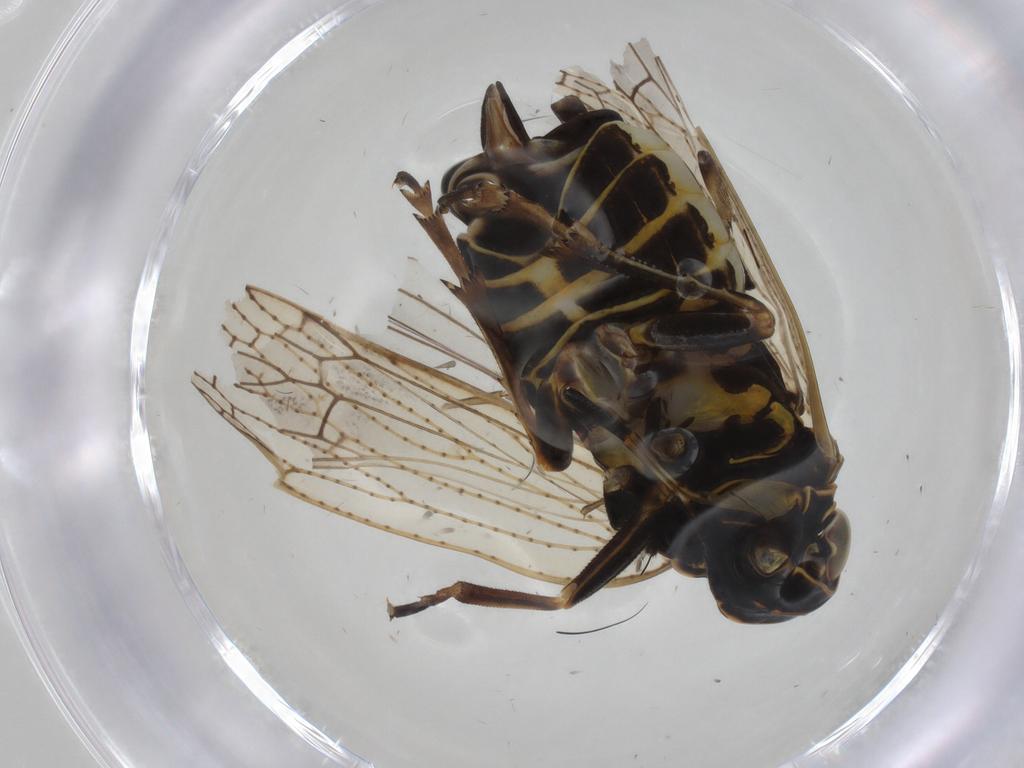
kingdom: Animalia
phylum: Arthropoda
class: Insecta
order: Hemiptera
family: Cixiidae
